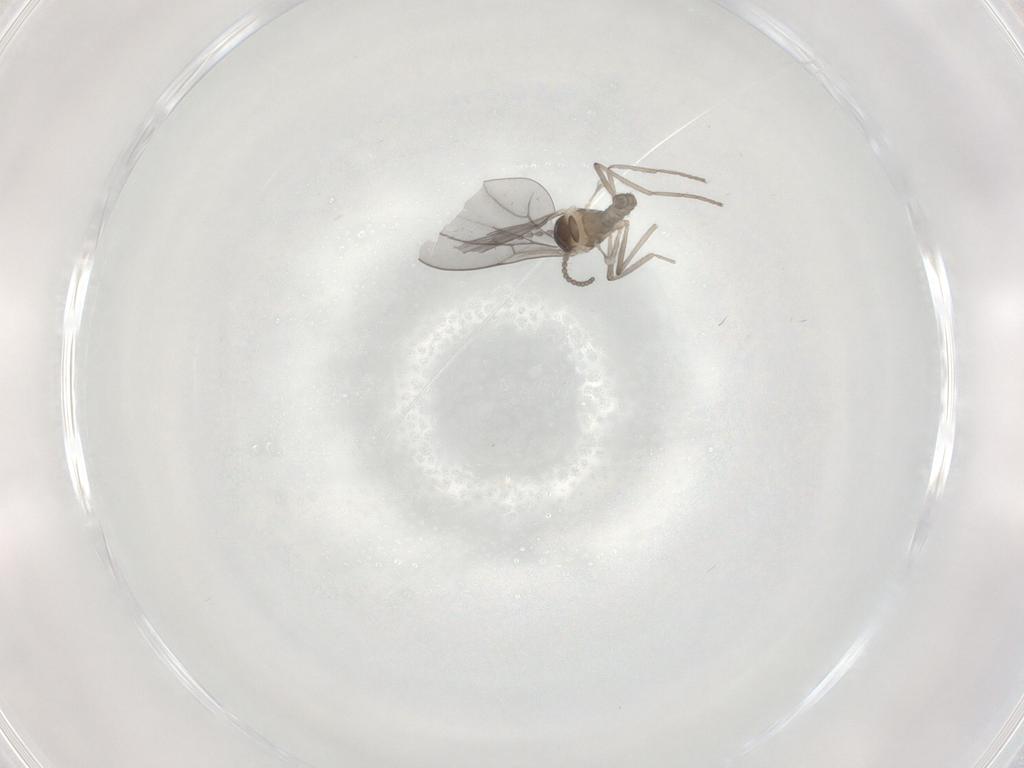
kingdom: Animalia
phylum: Arthropoda
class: Insecta
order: Diptera
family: Cecidomyiidae
